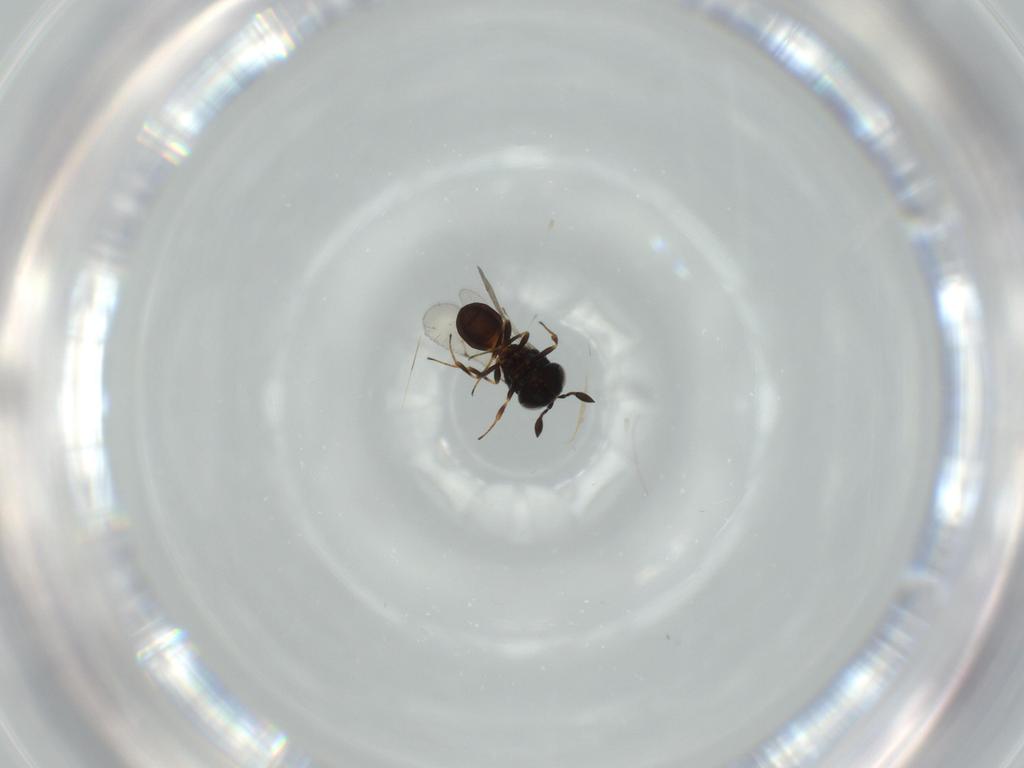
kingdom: Animalia
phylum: Arthropoda
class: Insecta
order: Hymenoptera
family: Scelionidae
